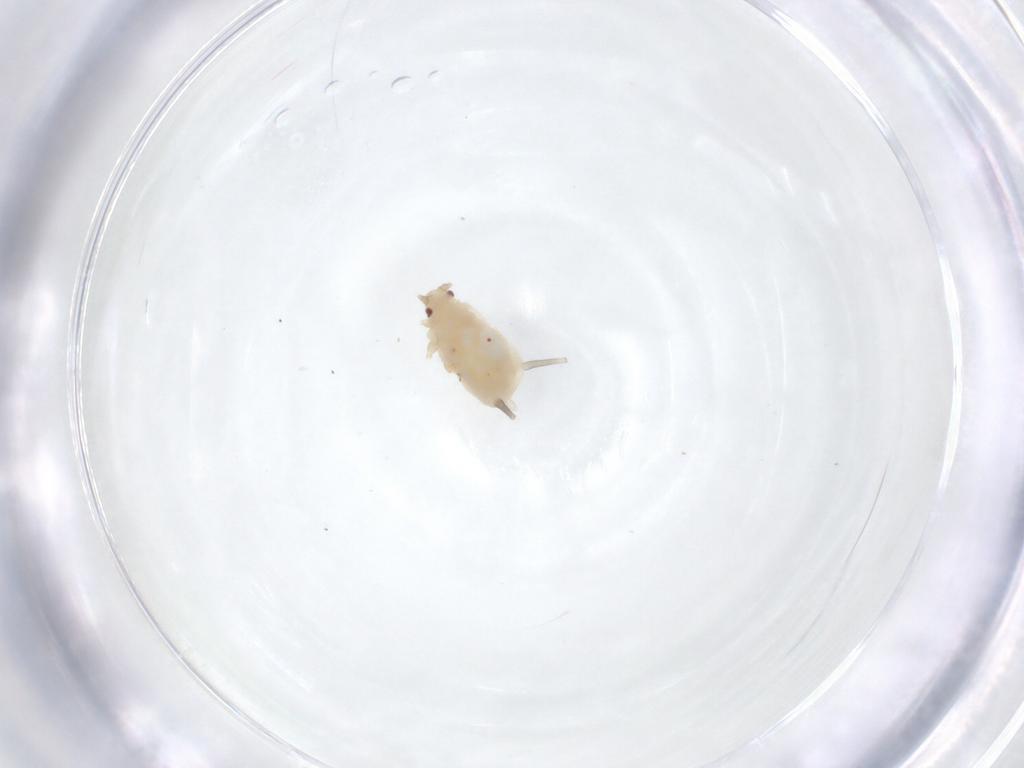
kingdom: Animalia
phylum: Arthropoda
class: Insecta
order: Hemiptera
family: Aphididae
